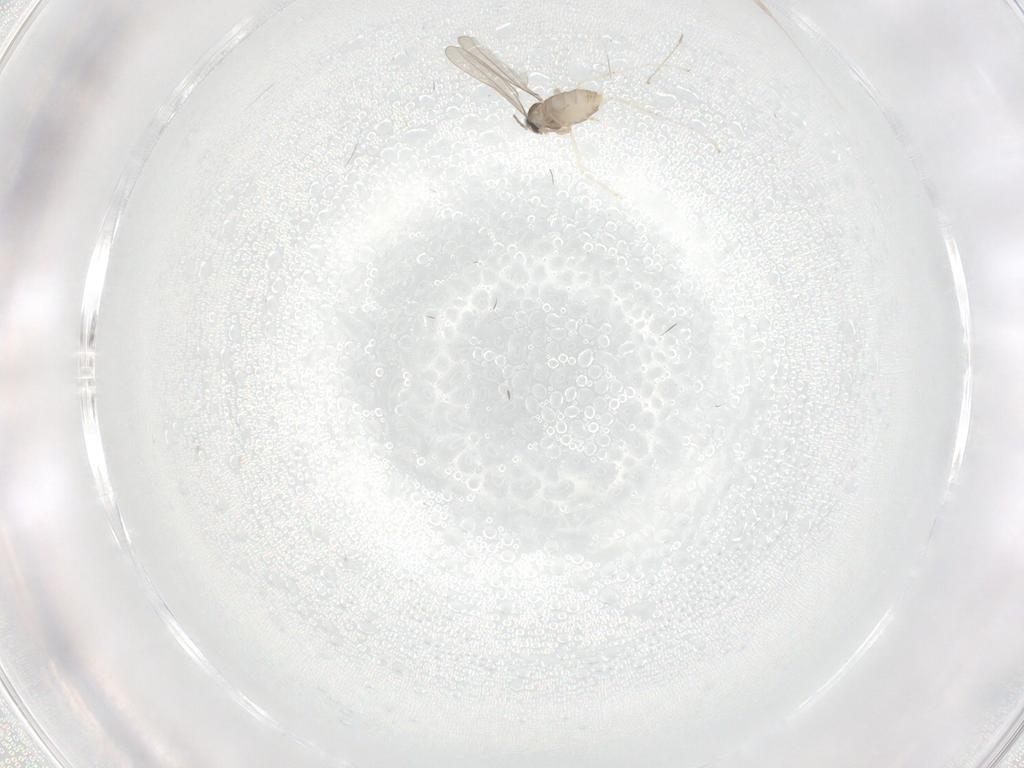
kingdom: Animalia
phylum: Arthropoda
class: Insecta
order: Diptera
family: Sciaridae
